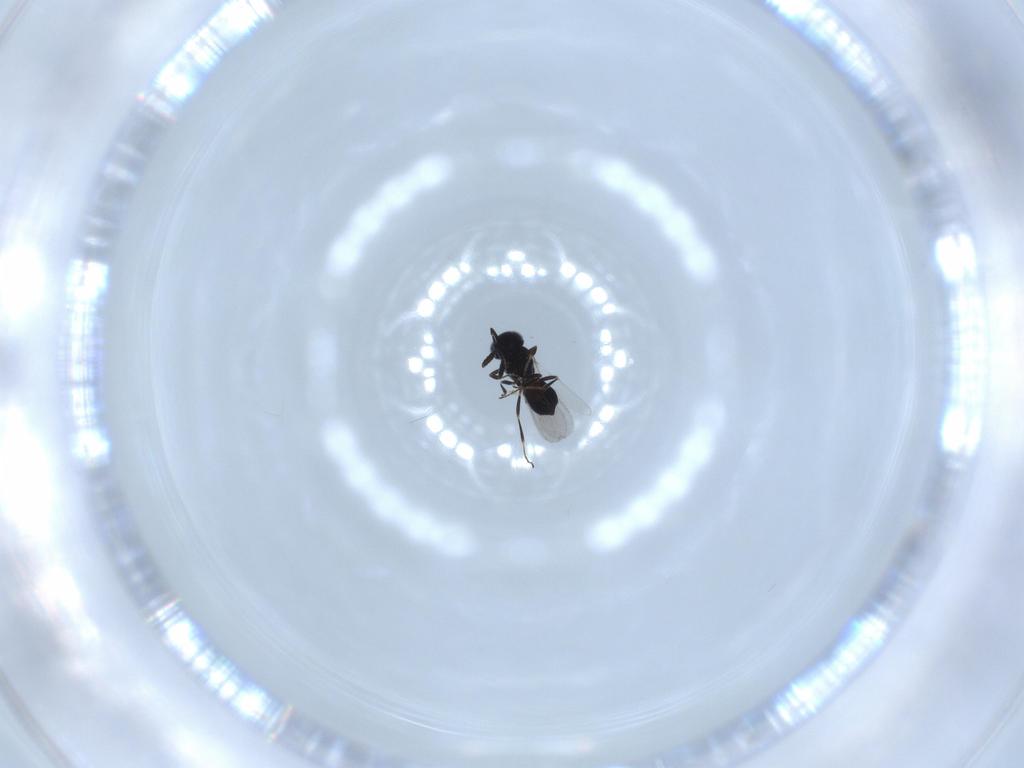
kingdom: Animalia
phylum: Arthropoda
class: Insecta
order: Hymenoptera
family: Scelionidae
